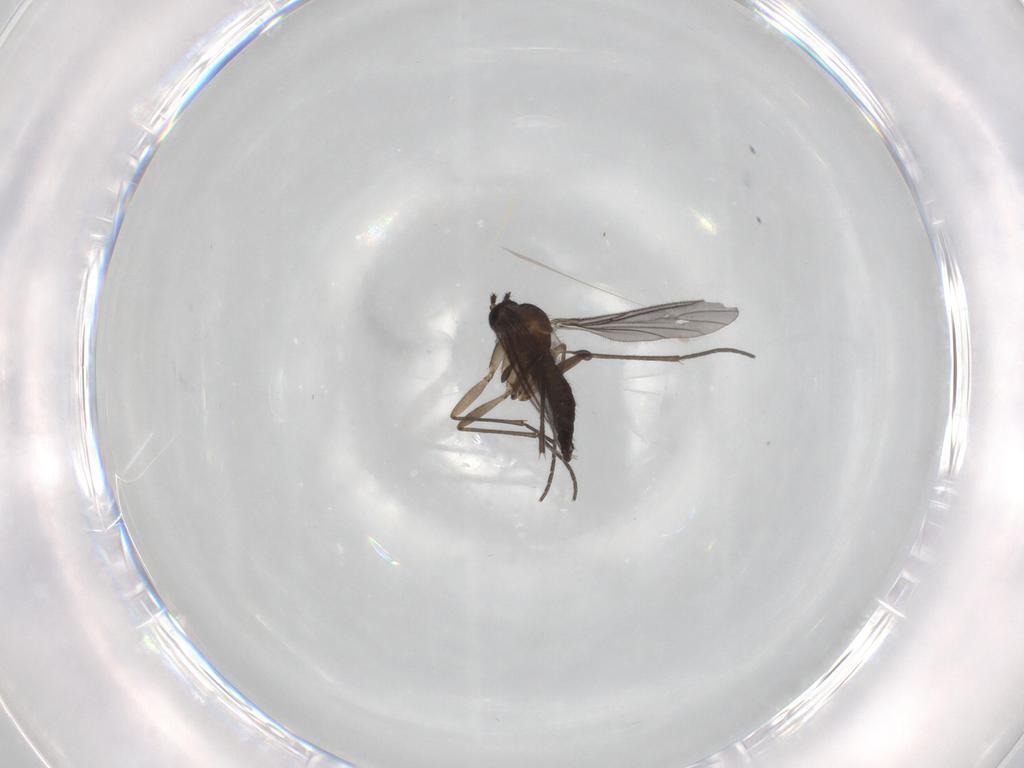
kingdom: Animalia
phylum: Arthropoda
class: Insecta
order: Diptera
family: Sciaridae
